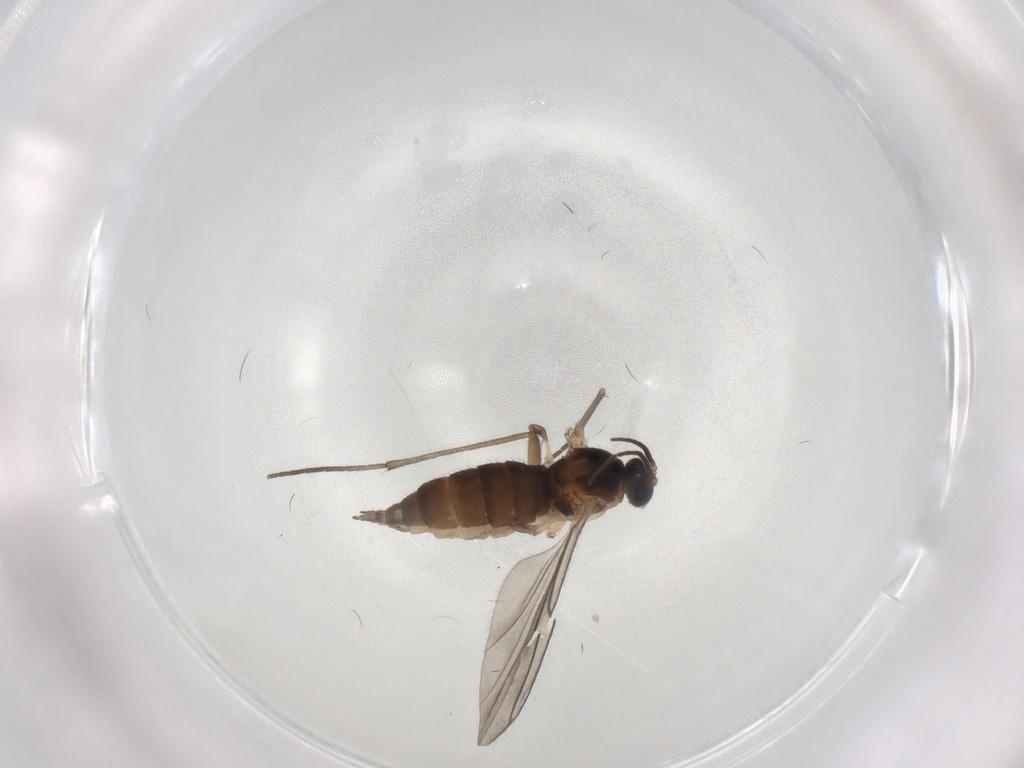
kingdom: Animalia
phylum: Arthropoda
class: Insecta
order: Diptera
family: Sciaridae
